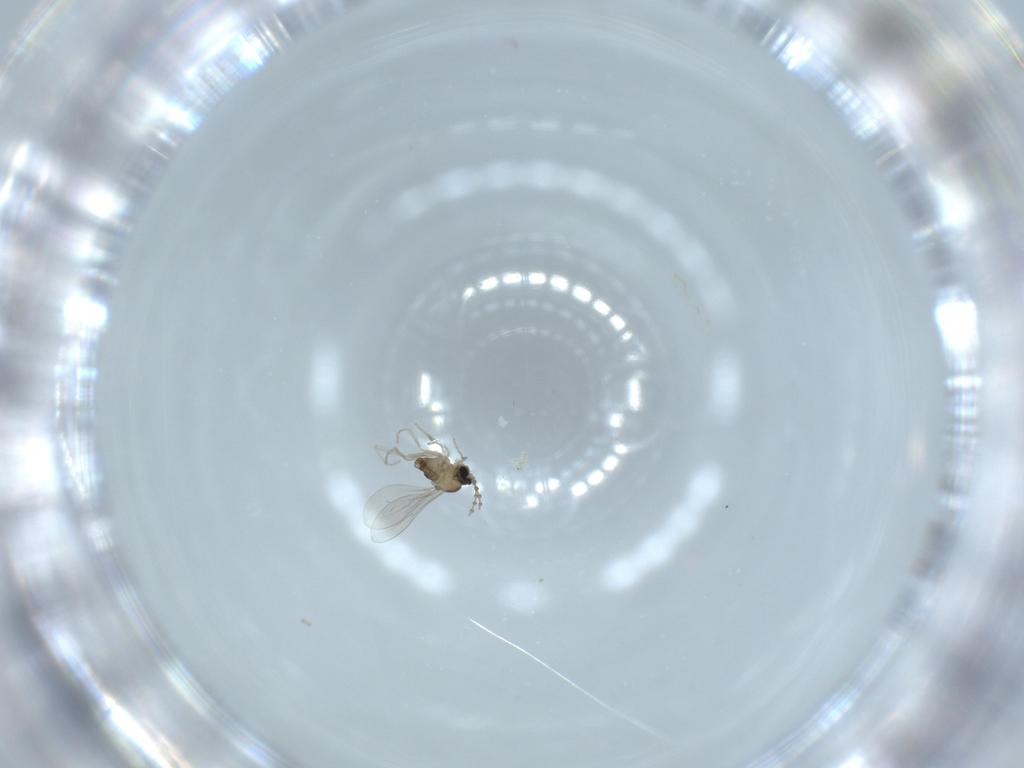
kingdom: Animalia
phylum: Arthropoda
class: Insecta
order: Diptera
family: Cecidomyiidae
